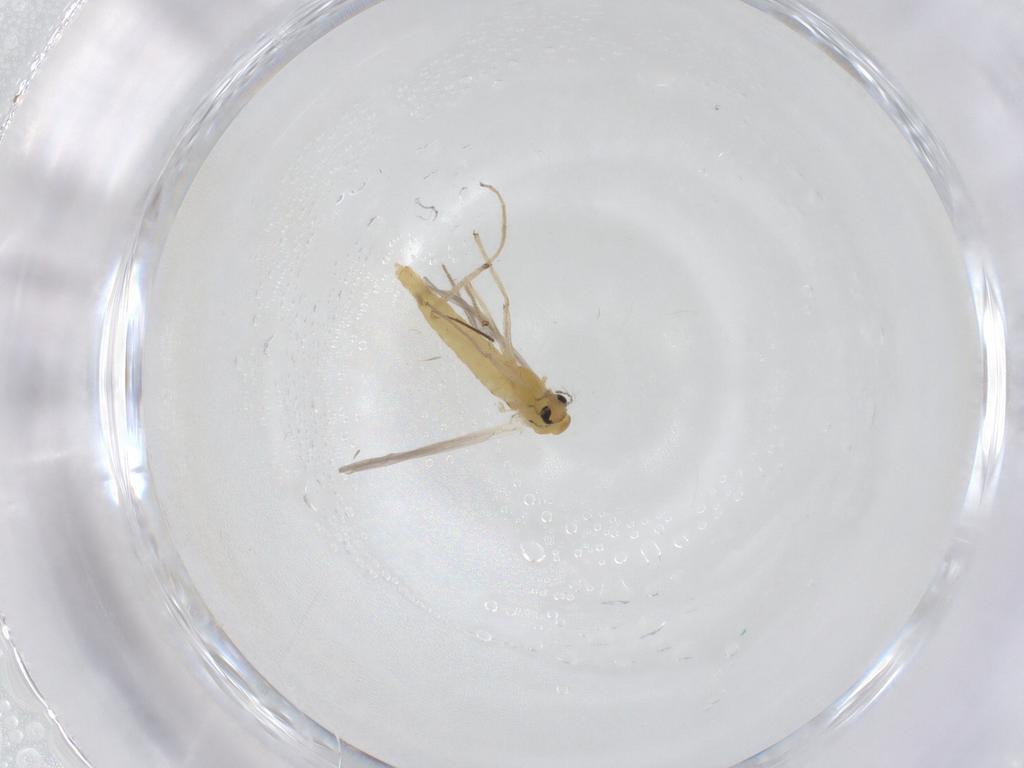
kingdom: Animalia
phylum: Arthropoda
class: Insecta
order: Diptera
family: Chironomidae
